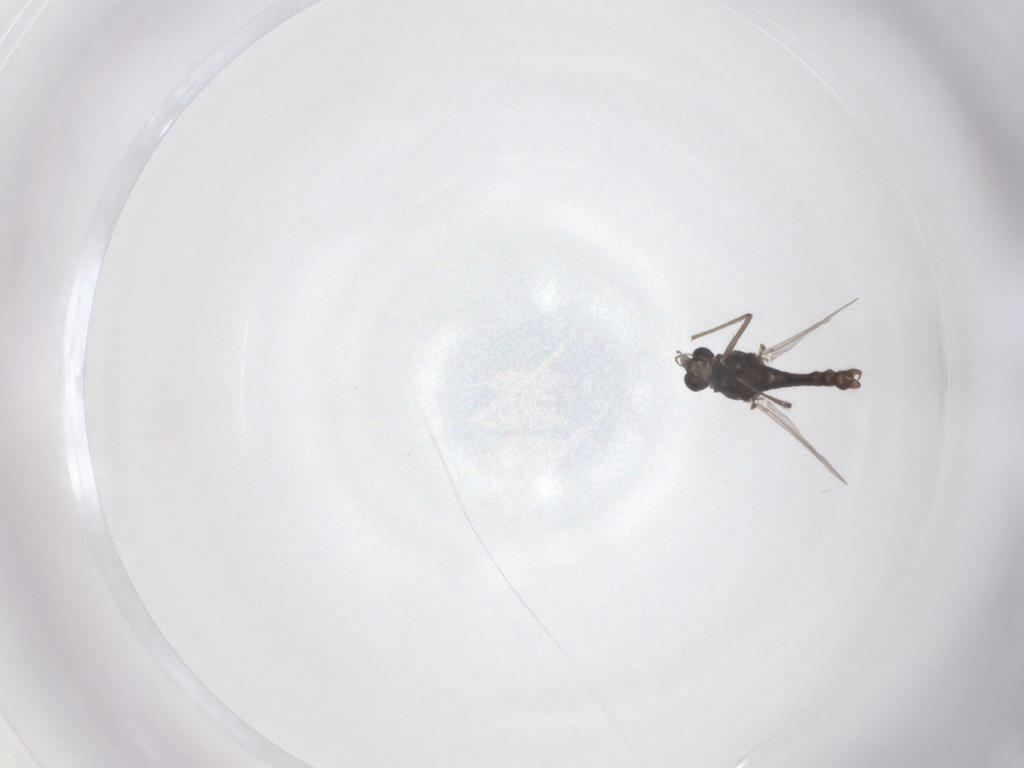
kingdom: Animalia
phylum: Arthropoda
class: Insecta
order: Diptera
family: Chironomidae
